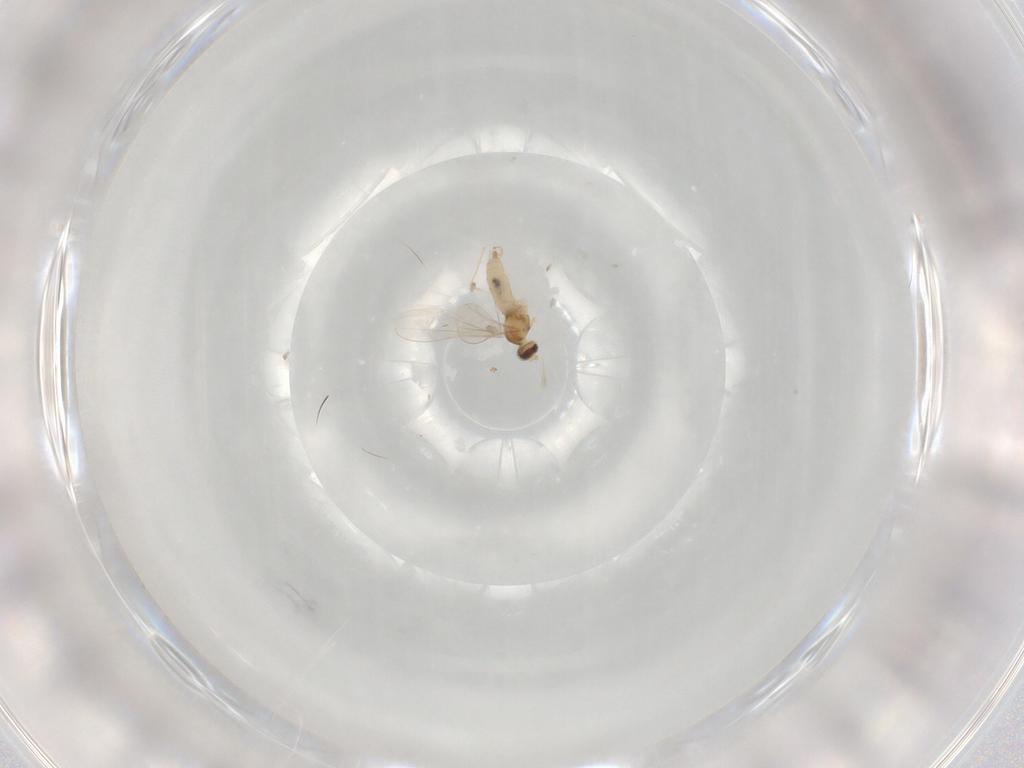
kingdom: Animalia
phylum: Arthropoda
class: Insecta
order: Diptera
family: Cecidomyiidae
